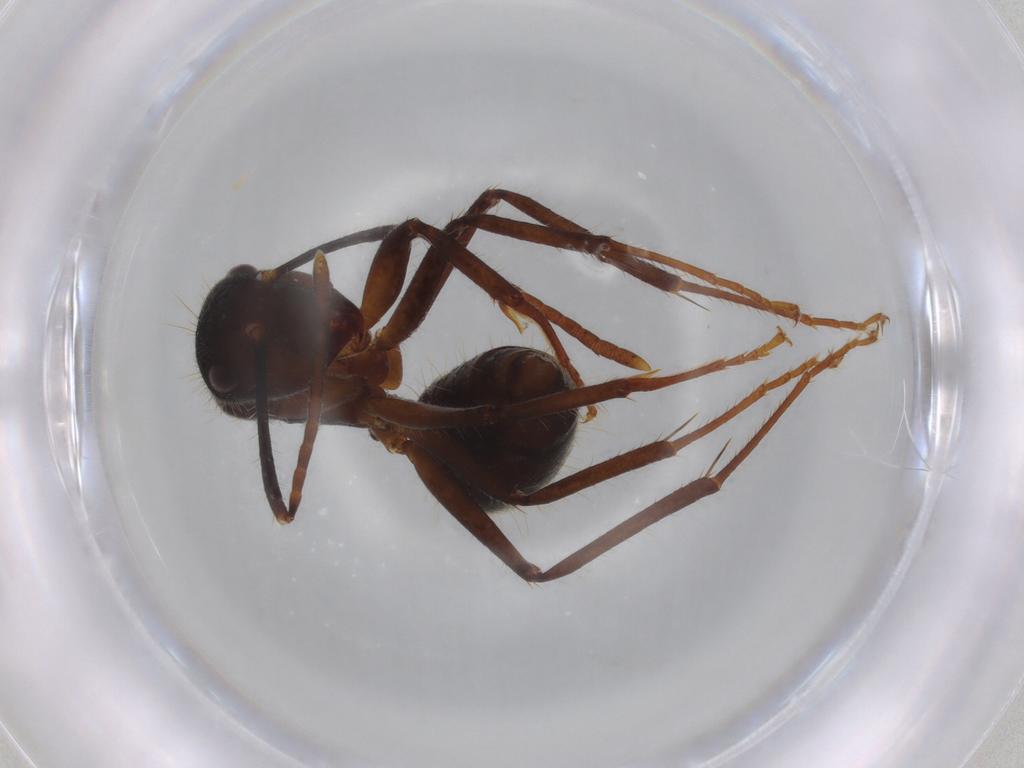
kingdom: Animalia
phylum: Arthropoda
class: Insecta
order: Hymenoptera
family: Formicidae
